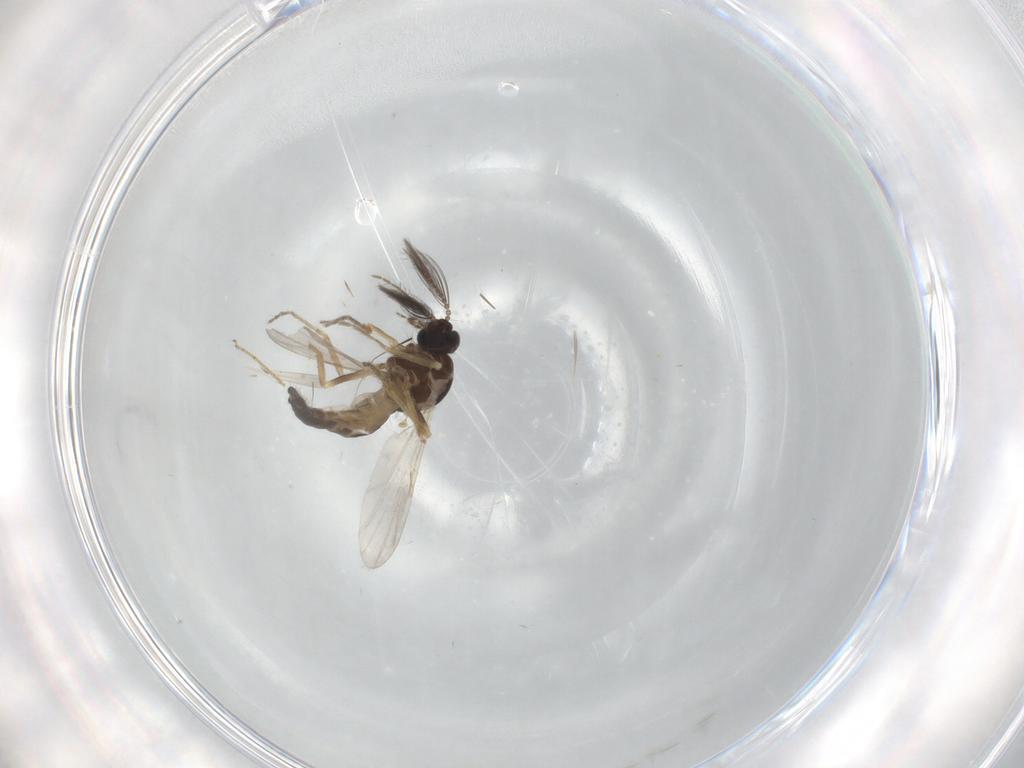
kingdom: Animalia
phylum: Arthropoda
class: Insecta
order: Diptera
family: Ceratopogonidae
